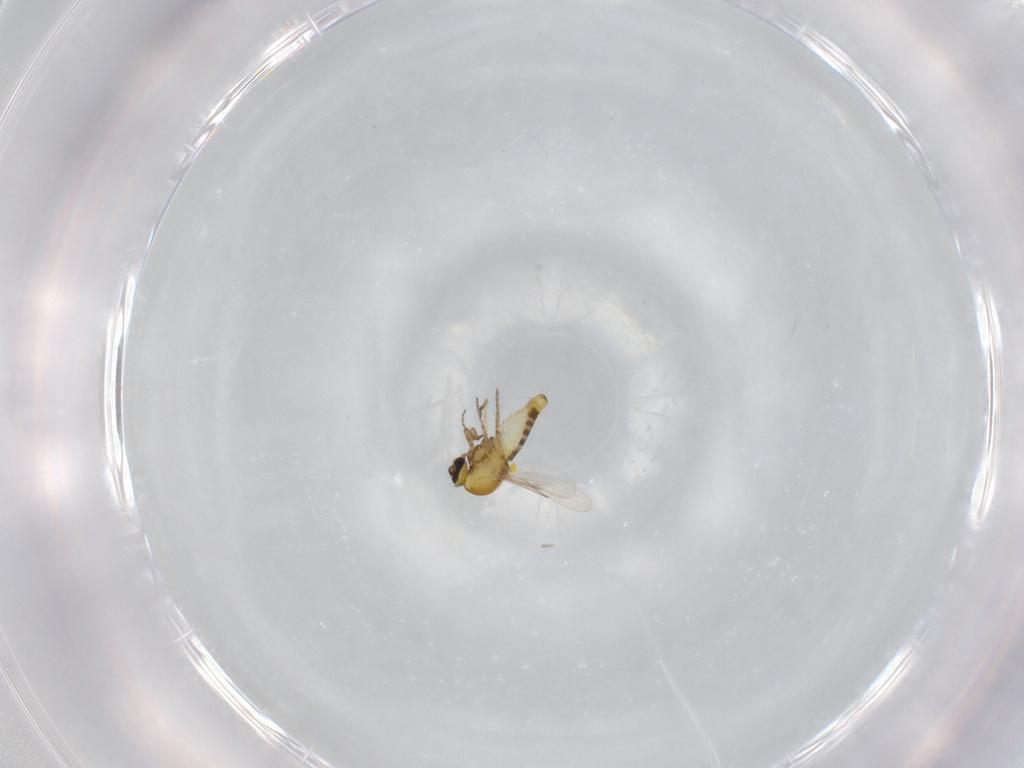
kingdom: Animalia
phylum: Arthropoda
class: Insecta
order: Diptera
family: Ceratopogonidae
